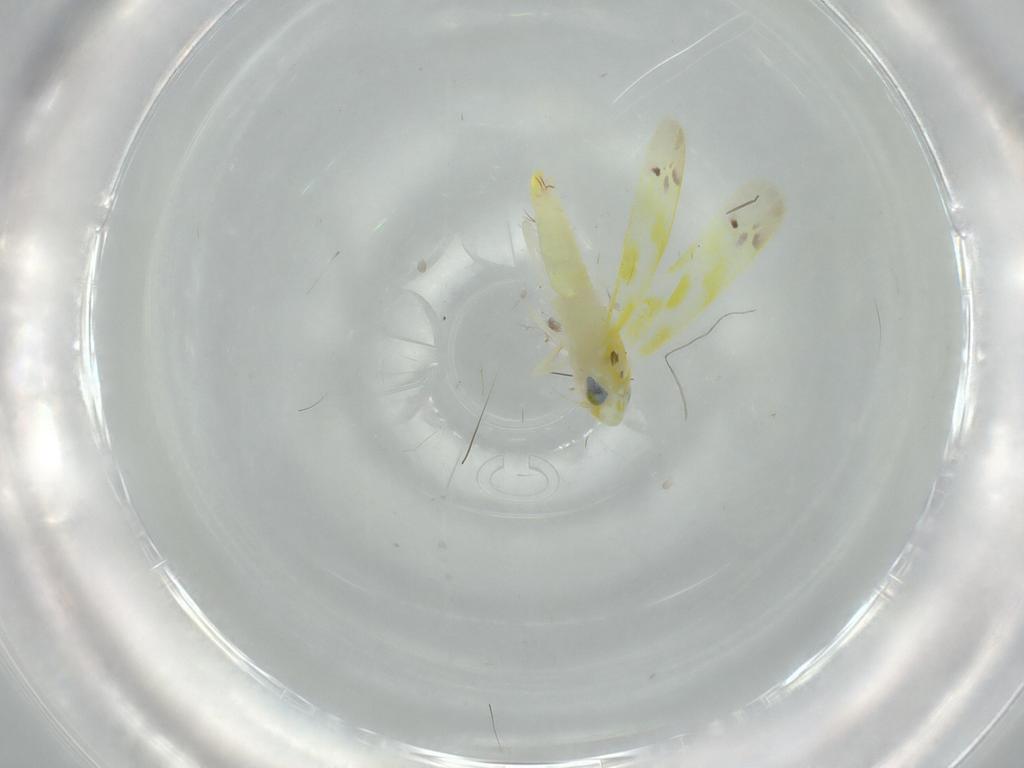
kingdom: Animalia
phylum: Arthropoda
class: Insecta
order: Hemiptera
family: Cicadellidae
